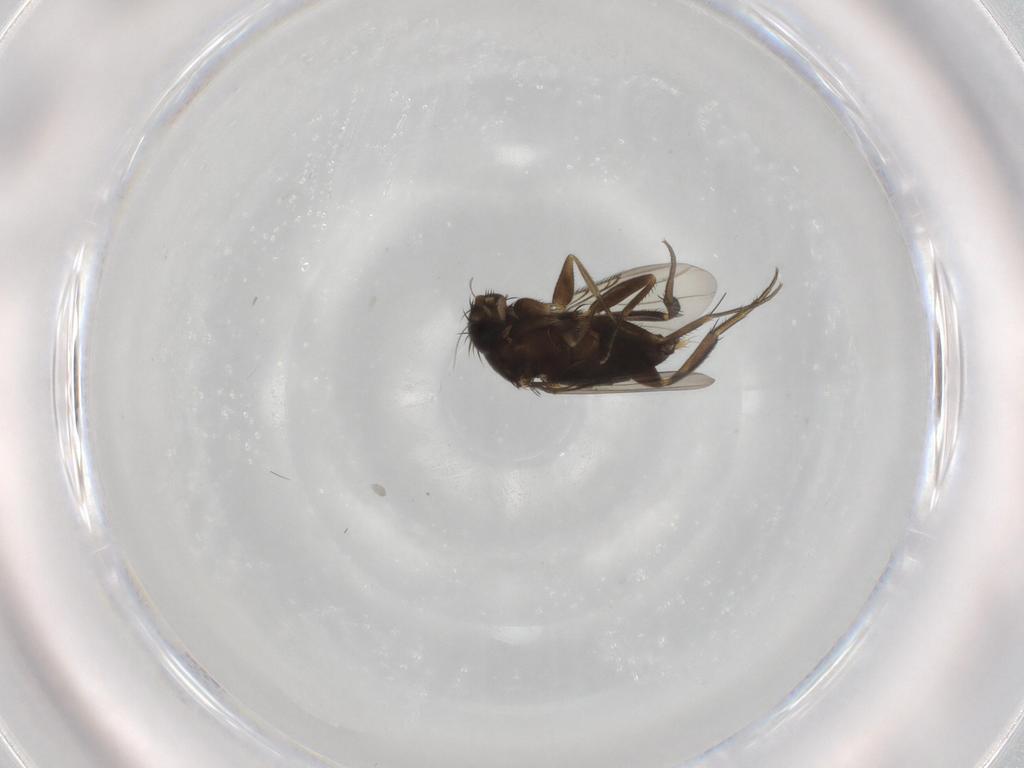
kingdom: Animalia
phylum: Arthropoda
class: Insecta
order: Diptera
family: Phoridae
